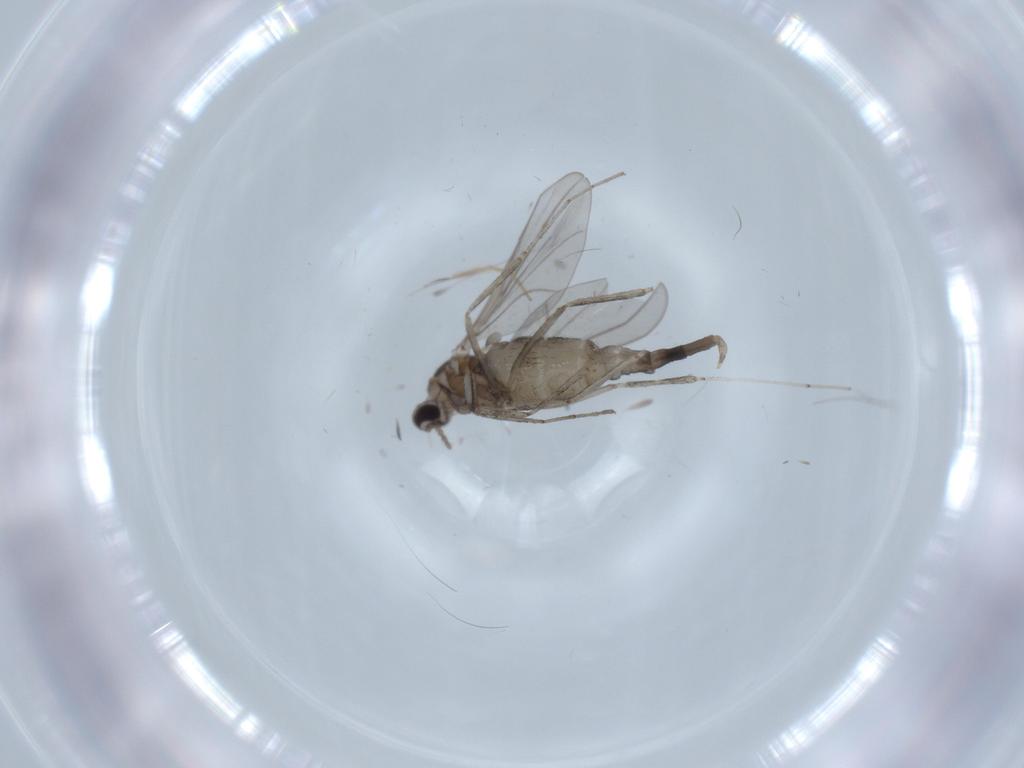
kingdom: Animalia
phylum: Arthropoda
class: Insecta
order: Diptera
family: Cecidomyiidae
